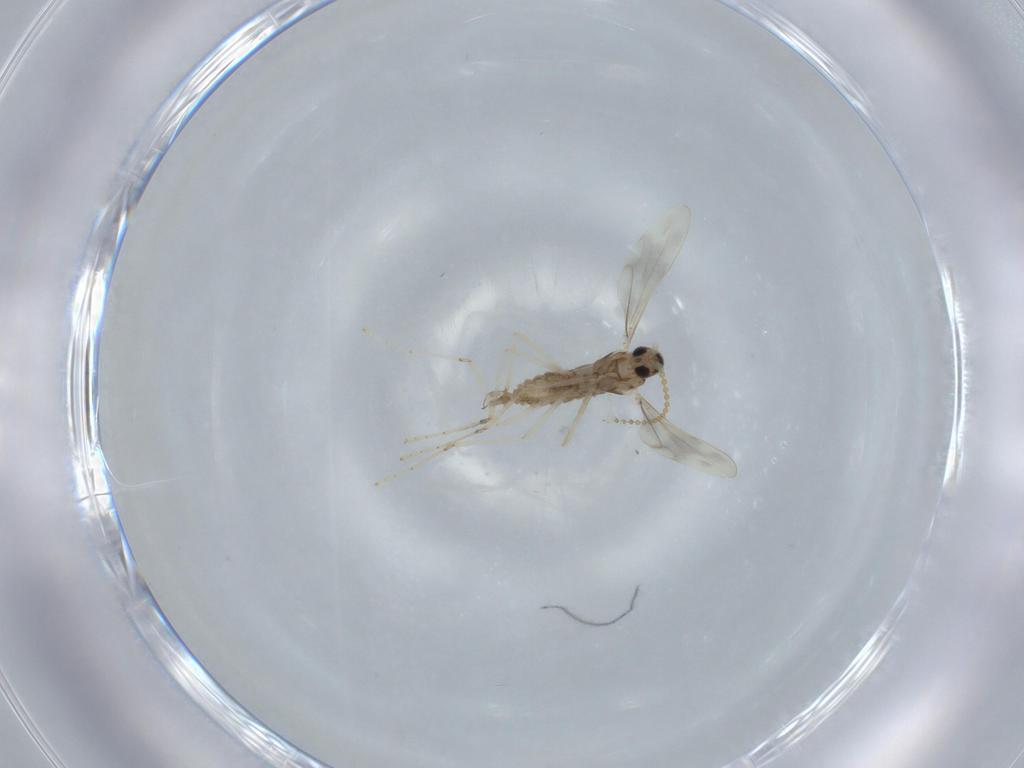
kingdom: Animalia
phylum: Arthropoda
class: Insecta
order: Diptera
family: Cecidomyiidae
